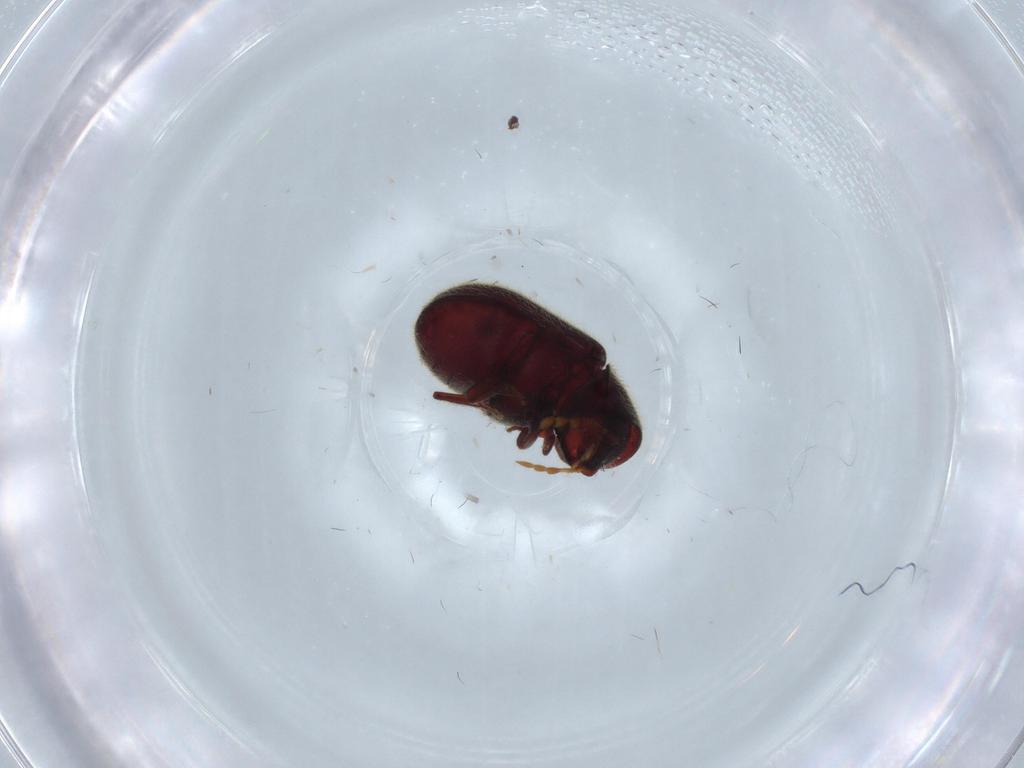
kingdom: Animalia
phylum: Arthropoda
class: Insecta
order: Coleoptera
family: Ptinidae
